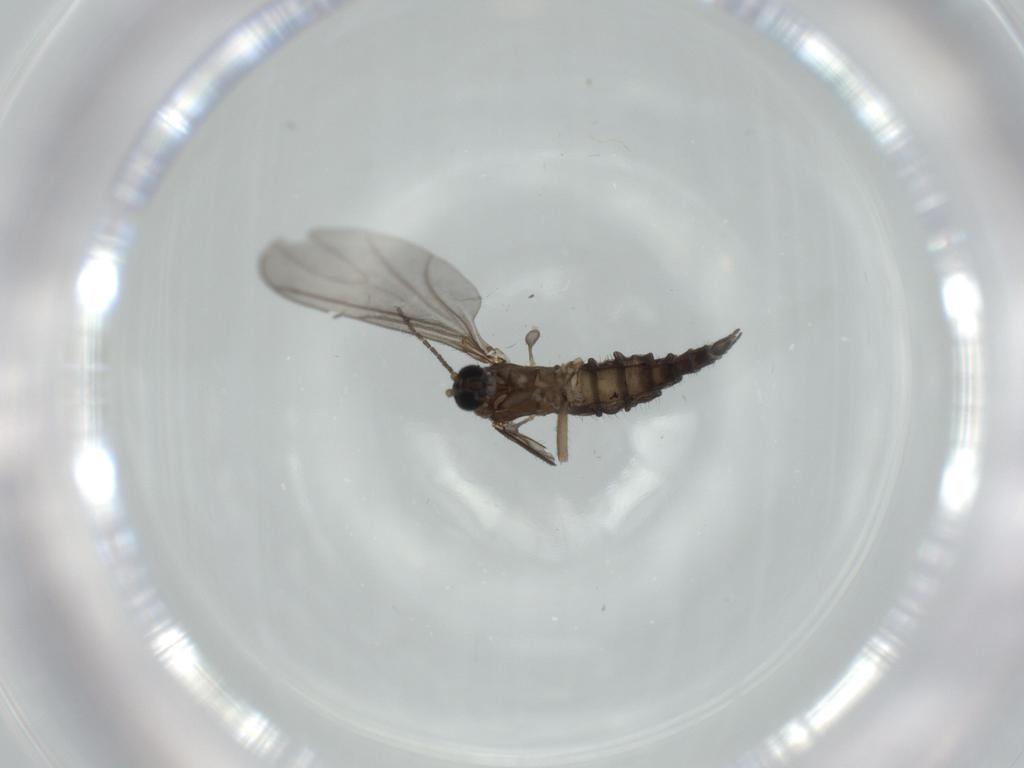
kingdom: Animalia
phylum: Arthropoda
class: Insecta
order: Diptera
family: Sciaridae
